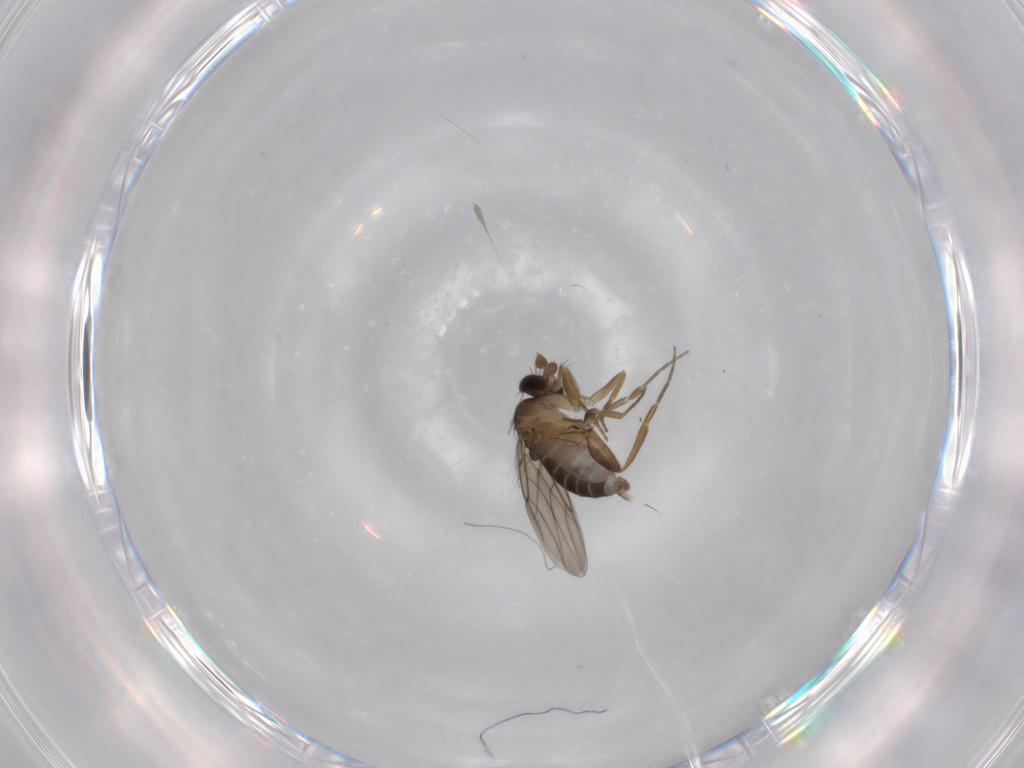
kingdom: Animalia
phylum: Arthropoda
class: Insecta
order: Diptera
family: Phoridae
